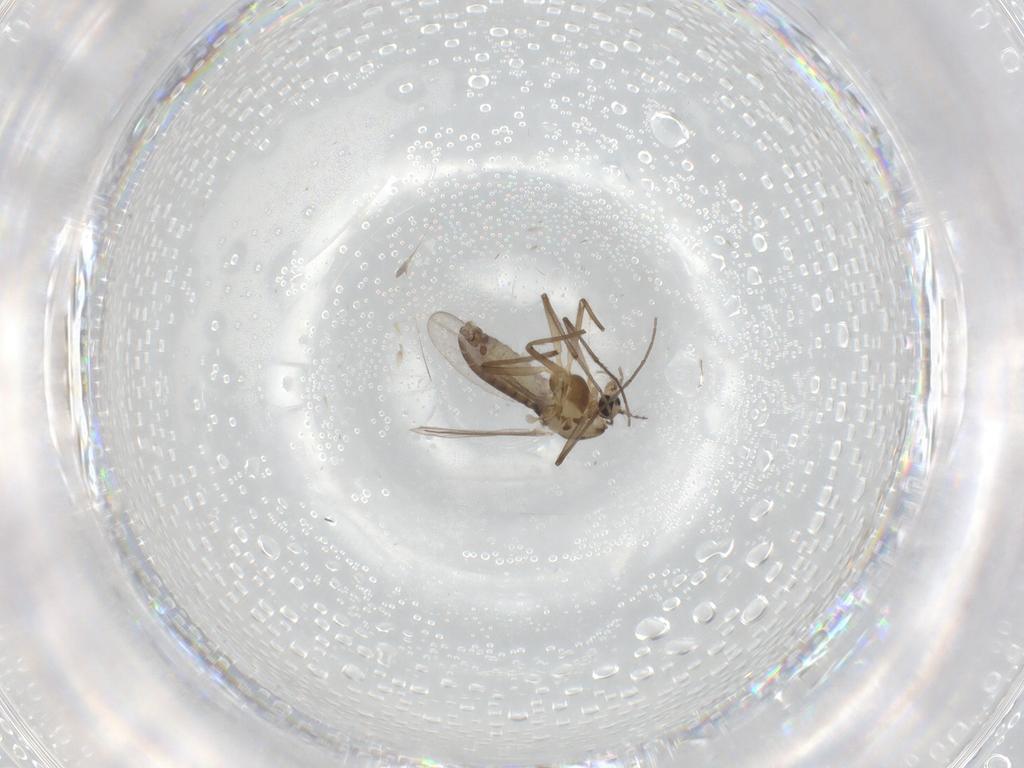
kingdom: Animalia
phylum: Arthropoda
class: Insecta
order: Diptera
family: Chironomidae
